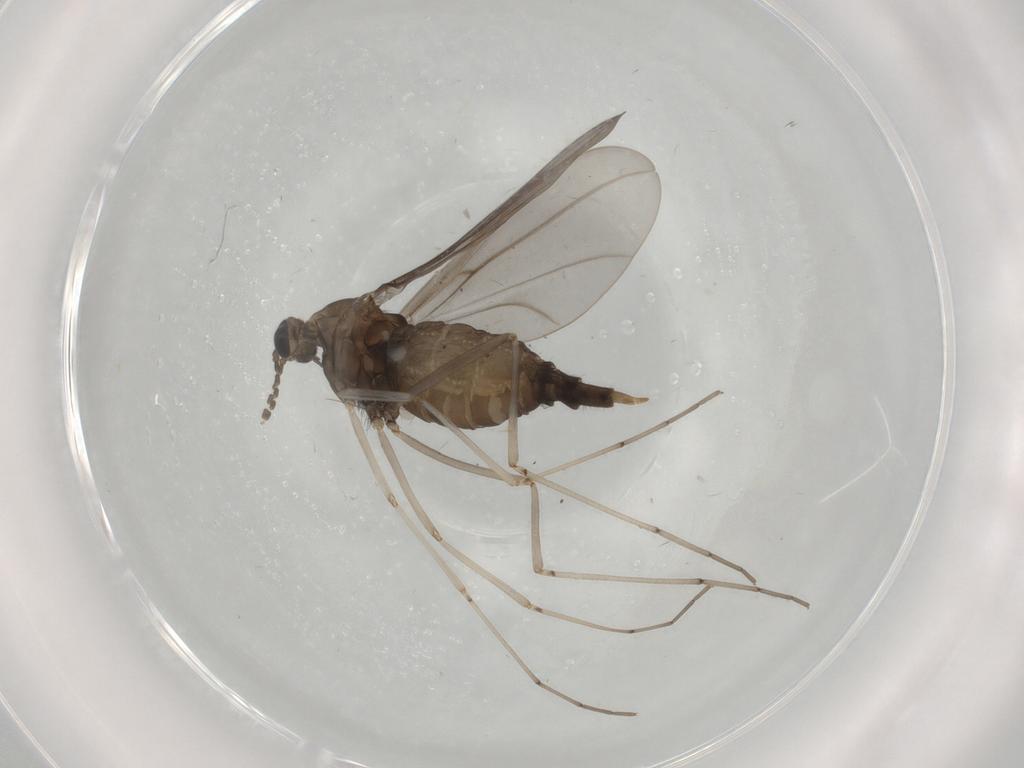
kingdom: Animalia
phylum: Arthropoda
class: Insecta
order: Diptera
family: Cecidomyiidae
